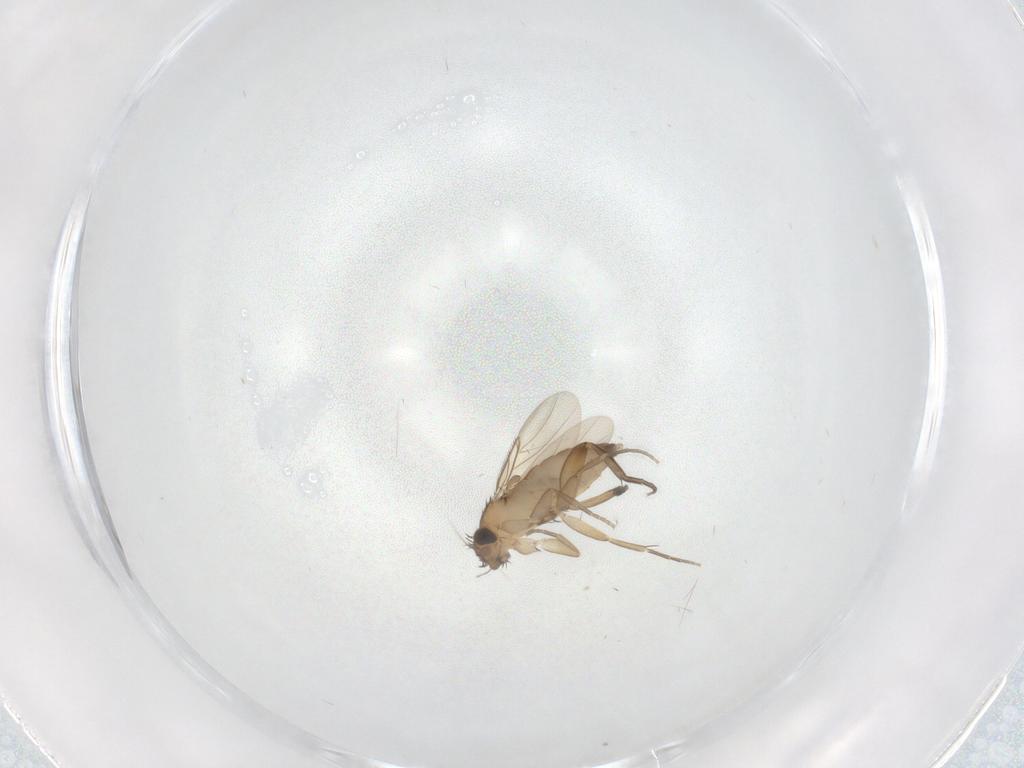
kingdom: Animalia
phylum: Arthropoda
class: Insecta
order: Diptera
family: Phoridae
